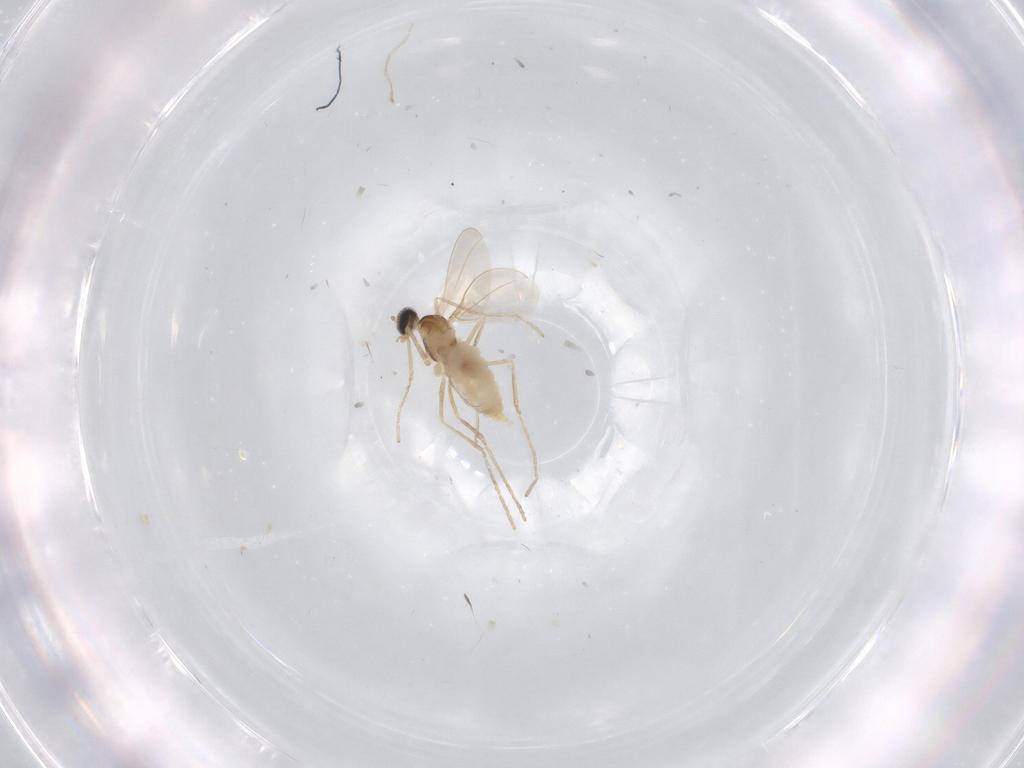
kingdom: Animalia
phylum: Arthropoda
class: Insecta
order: Diptera
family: Cecidomyiidae
